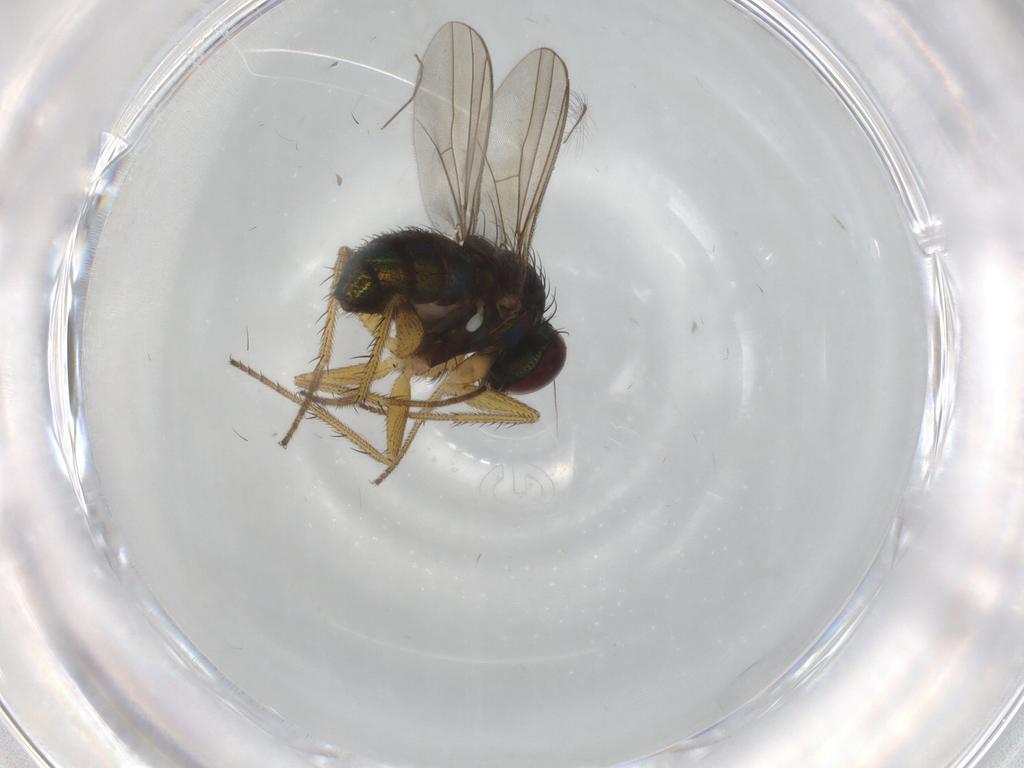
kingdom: Animalia
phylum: Arthropoda
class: Insecta
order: Diptera
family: Dolichopodidae
